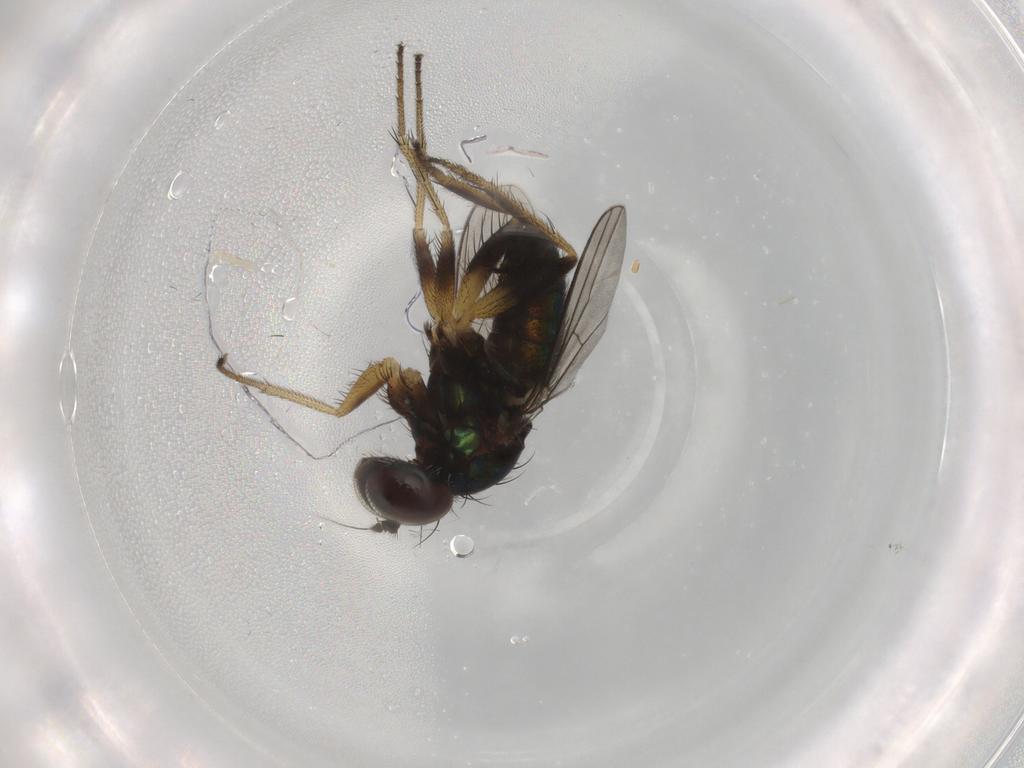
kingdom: Animalia
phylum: Arthropoda
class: Insecta
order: Diptera
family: Dolichopodidae
